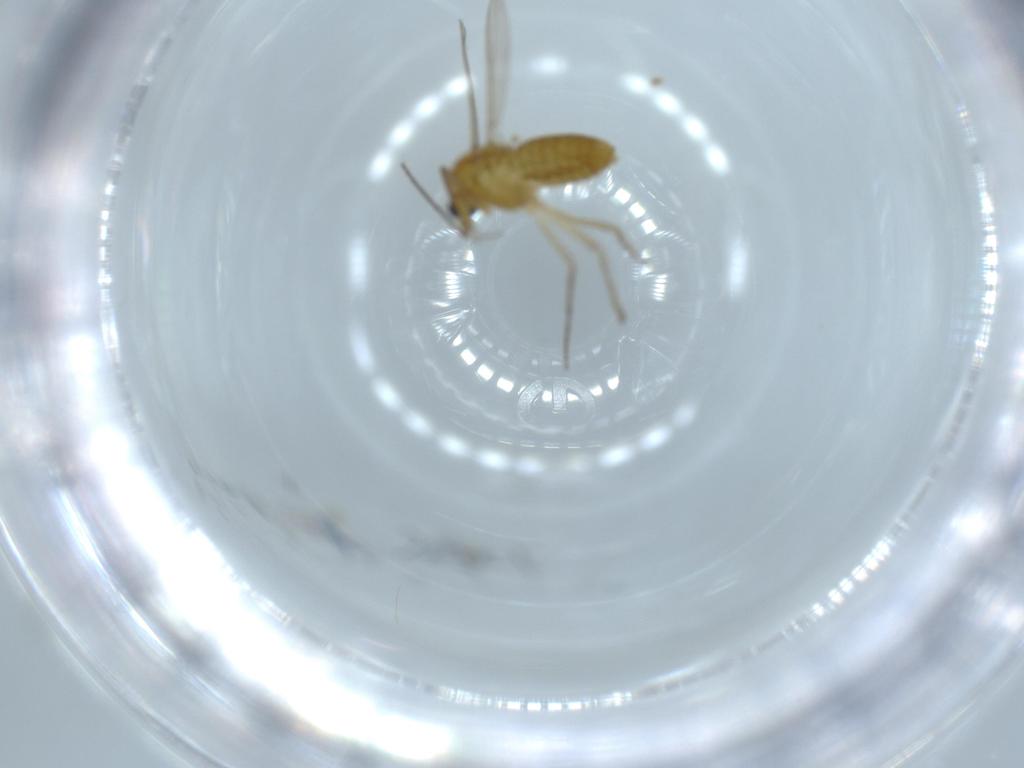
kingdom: Animalia
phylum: Arthropoda
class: Insecta
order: Diptera
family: Chironomidae
